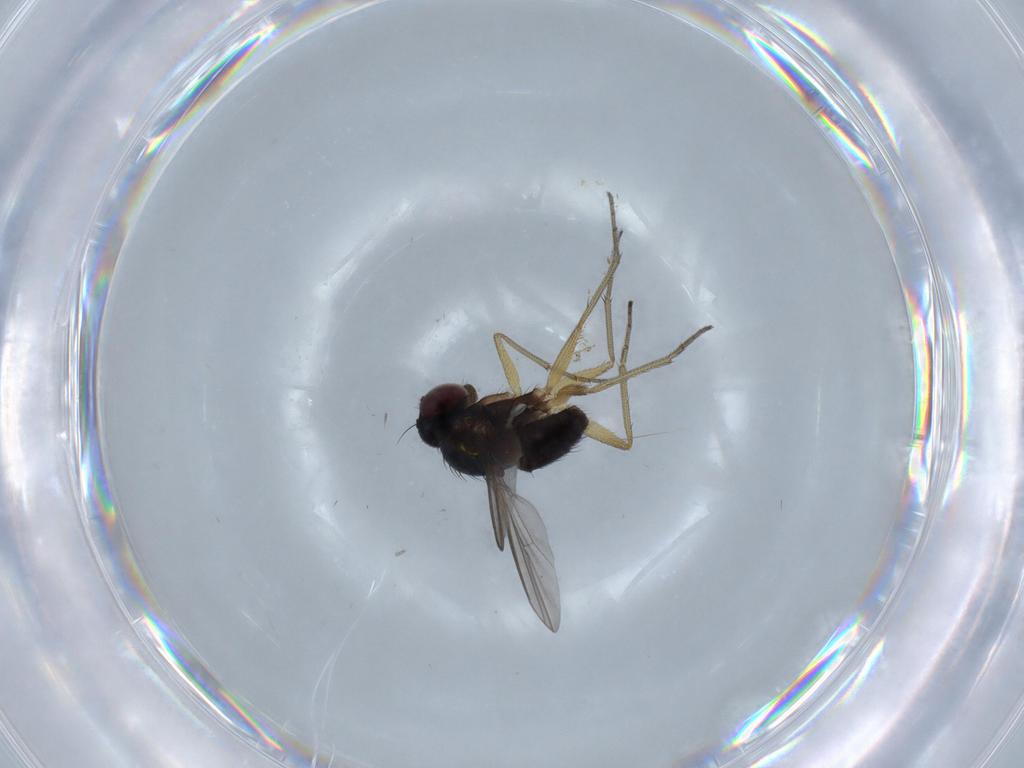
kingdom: Animalia
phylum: Arthropoda
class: Insecta
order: Diptera
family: Dolichopodidae
